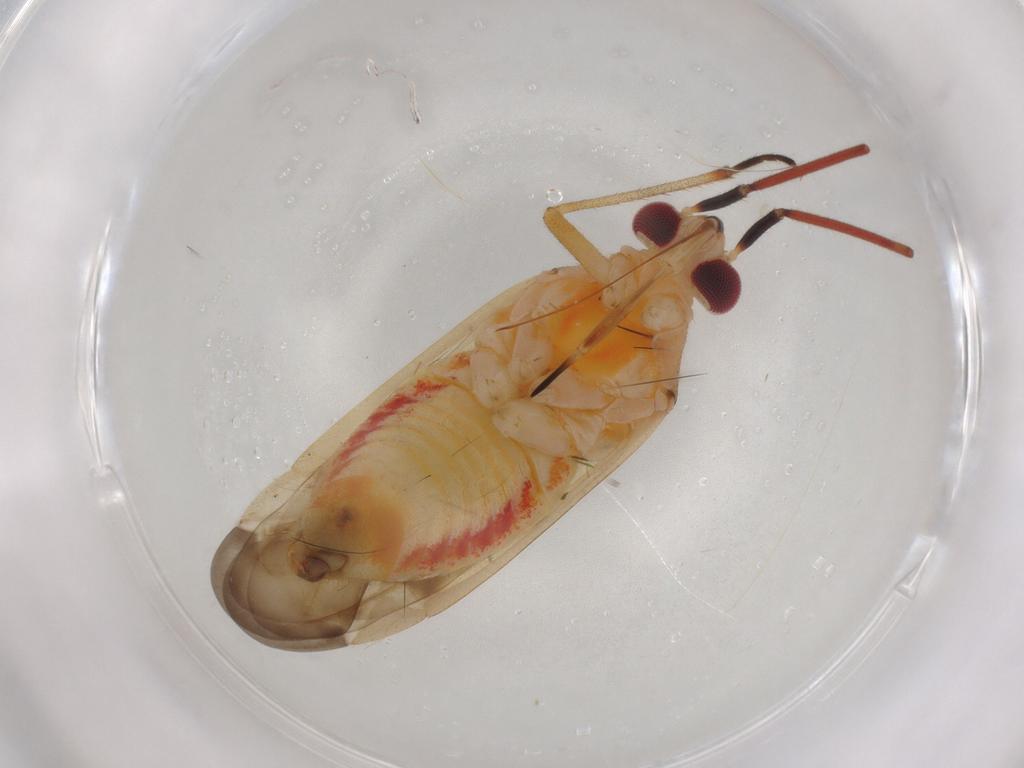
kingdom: Animalia
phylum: Arthropoda
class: Insecta
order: Hemiptera
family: Miridae
